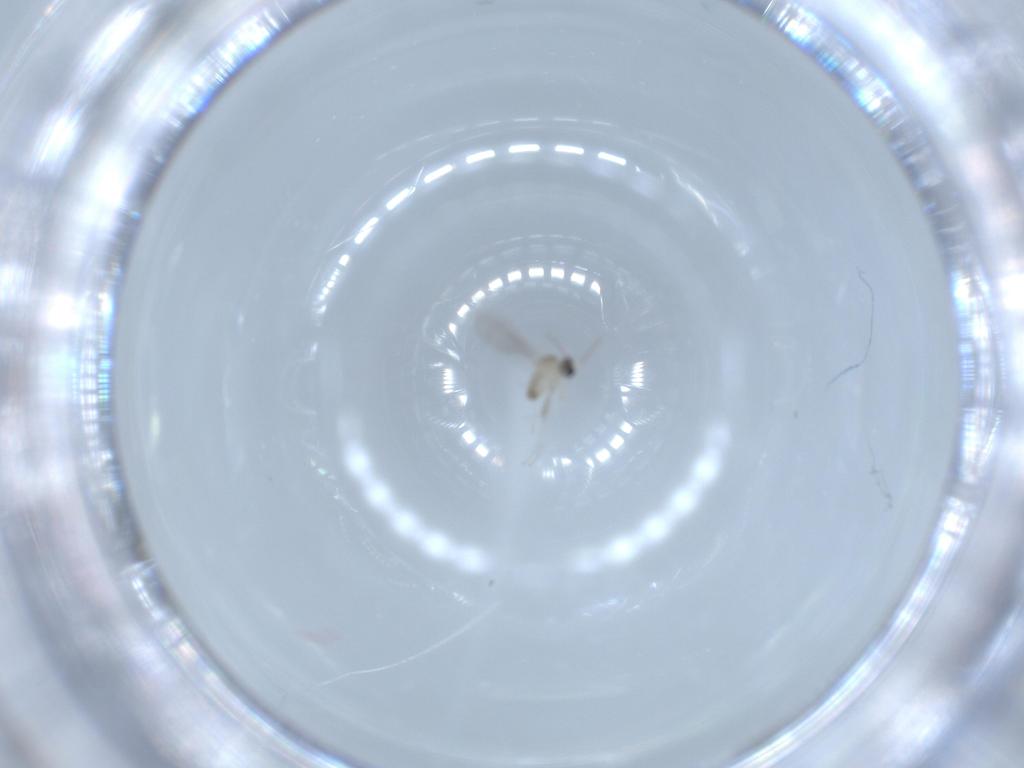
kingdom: Animalia
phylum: Arthropoda
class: Insecta
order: Diptera
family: Cecidomyiidae
